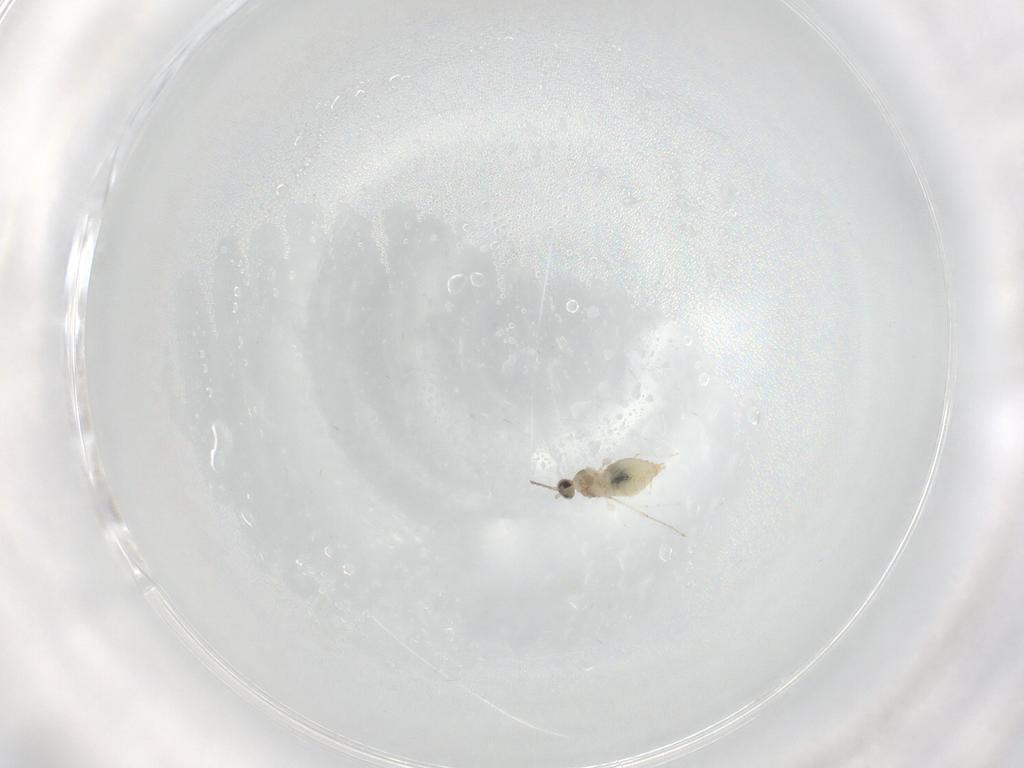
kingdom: Animalia
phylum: Arthropoda
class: Insecta
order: Diptera
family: Cecidomyiidae
